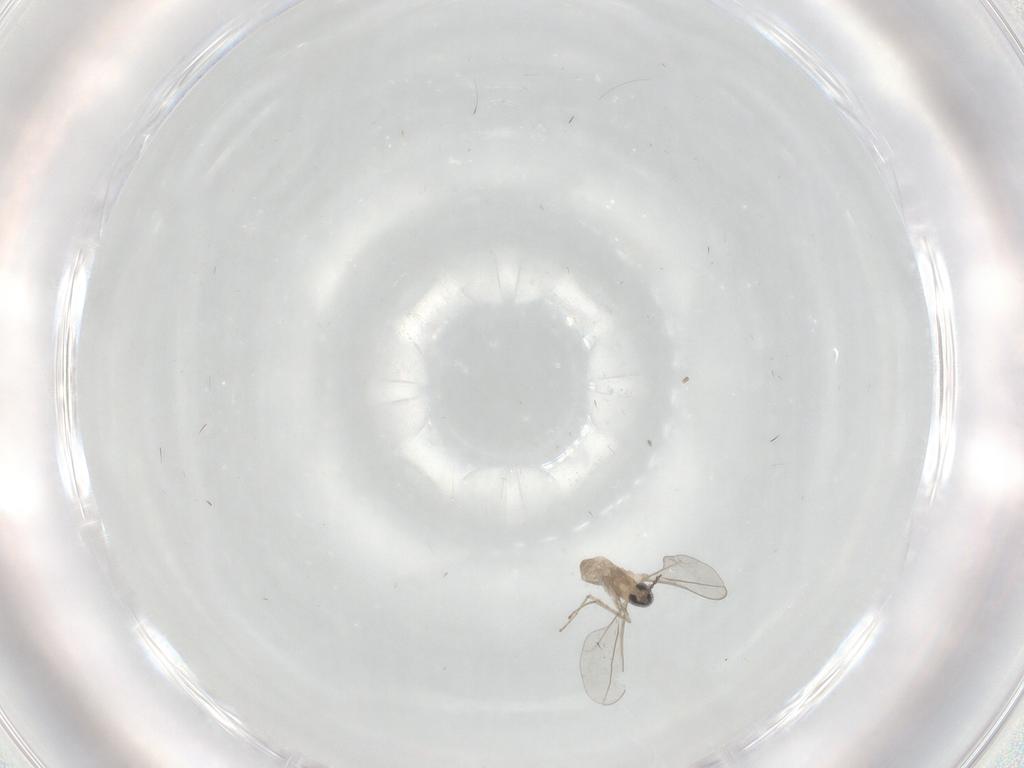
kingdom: Animalia
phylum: Arthropoda
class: Insecta
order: Diptera
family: Cecidomyiidae
